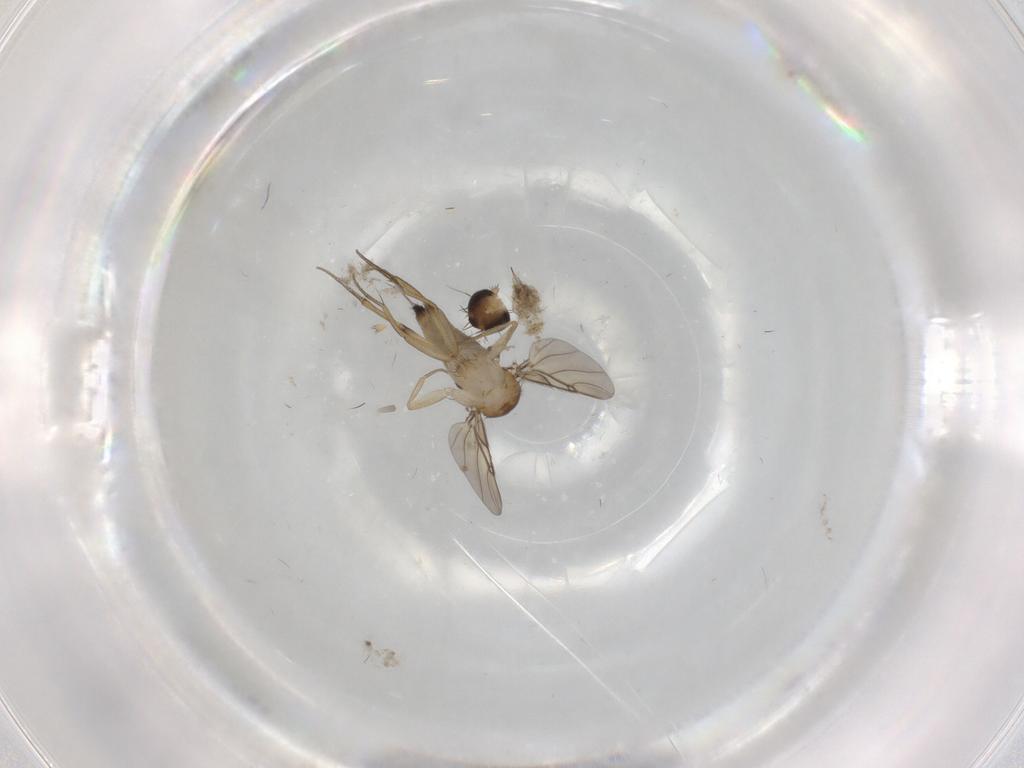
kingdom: Animalia
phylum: Arthropoda
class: Insecta
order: Diptera
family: Phoridae
